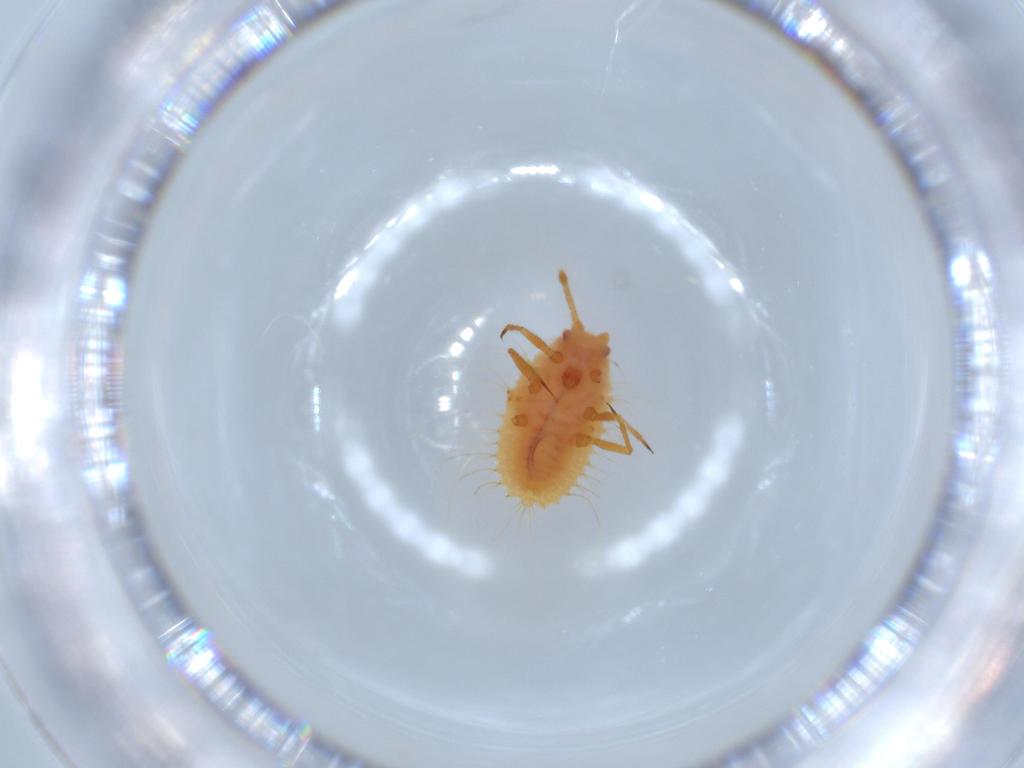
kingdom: Animalia
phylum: Arthropoda
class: Insecta
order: Hemiptera
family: Coccoidea_incertae_sedis
